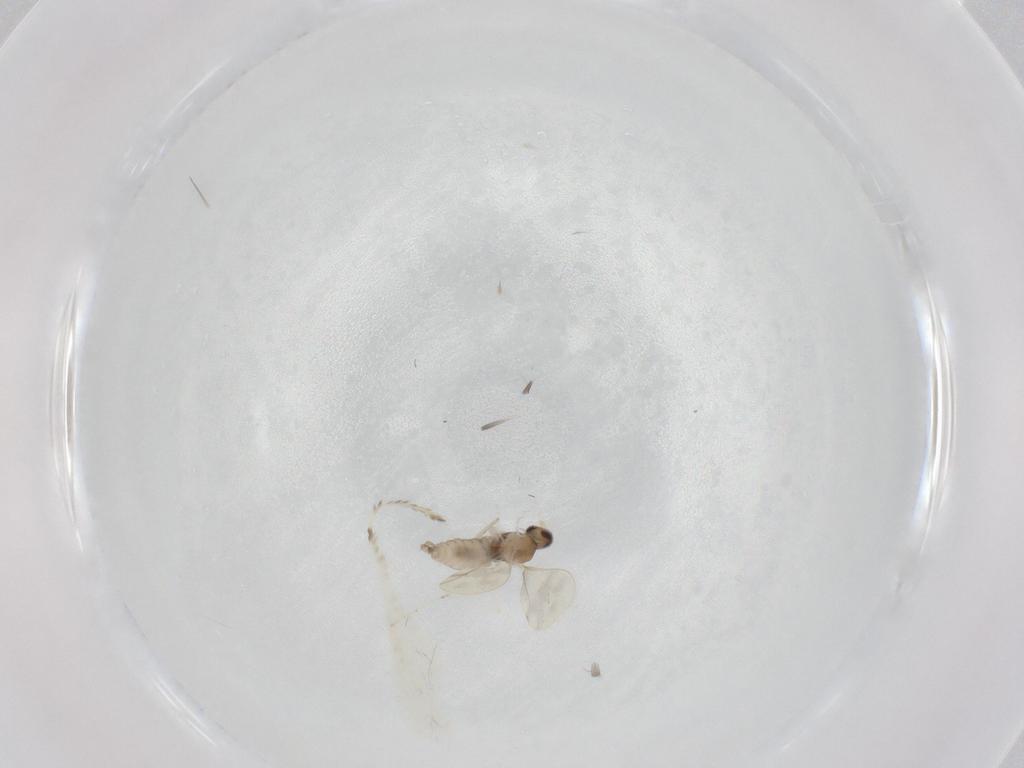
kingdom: Animalia
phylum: Arthropoda
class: Insecta
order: Diptera
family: Cecidomyiidae
